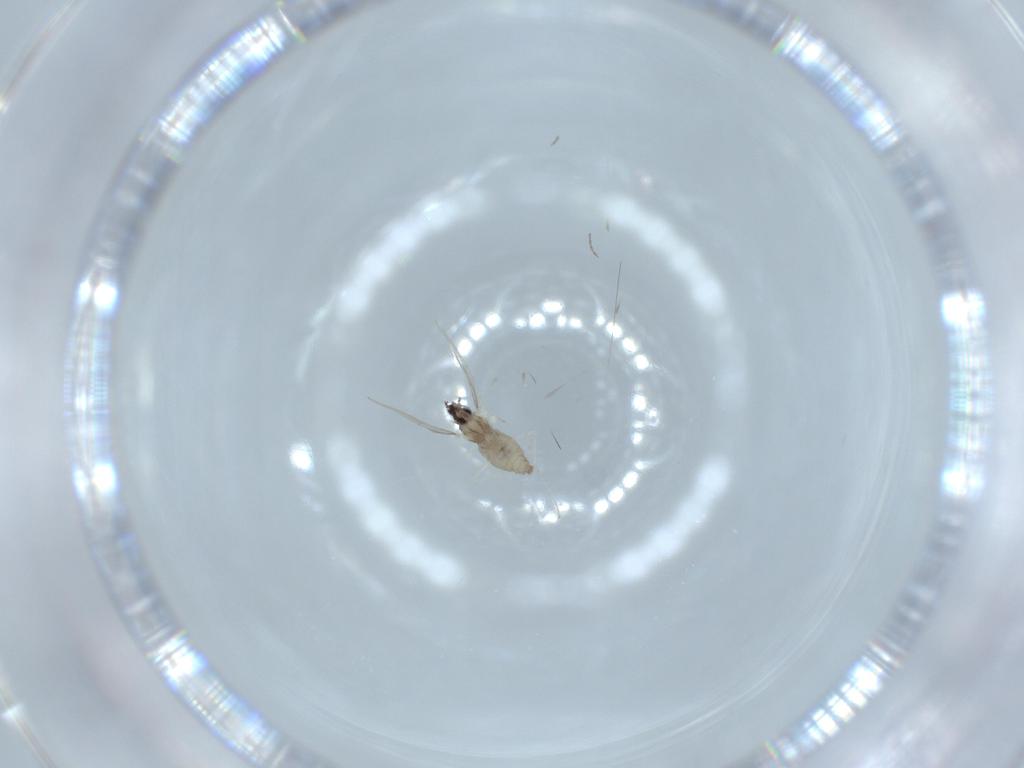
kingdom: Animalia
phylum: Arthropoda
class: Insecta
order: Diptera
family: Cecidomyiidae
